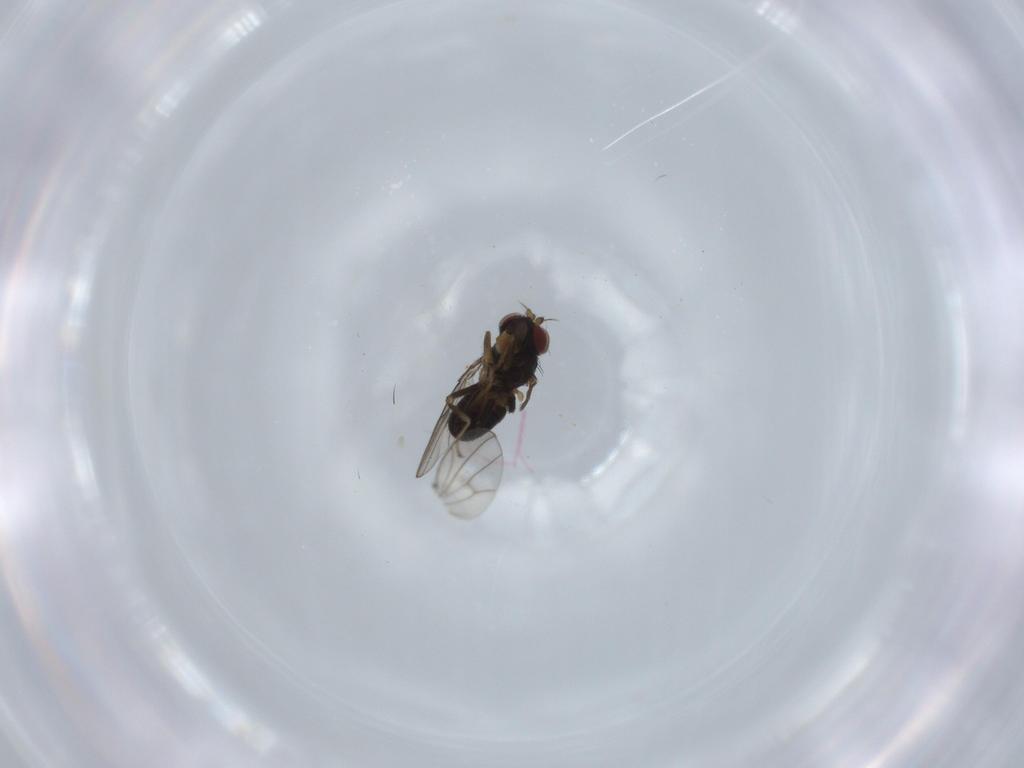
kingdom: Animalia
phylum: Arthropoda
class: Insecta
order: Diptera
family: Ephydridae
